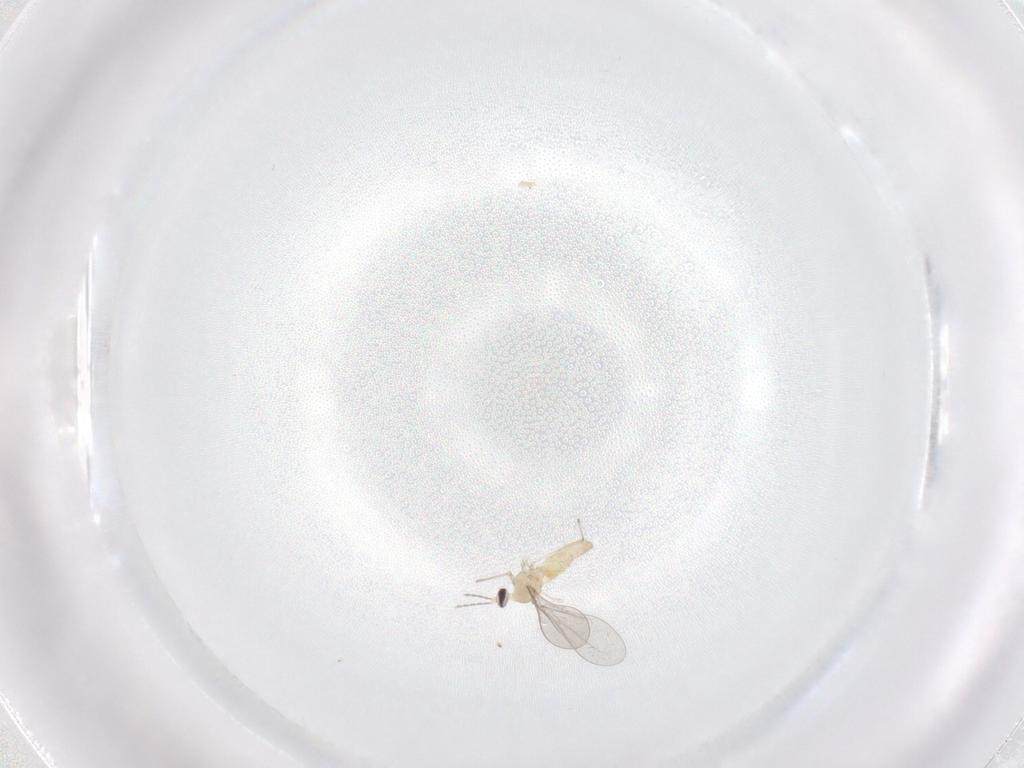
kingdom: Animalia
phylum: Arthropoda
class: Insecta
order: Diptera
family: Cecidomyiidae
